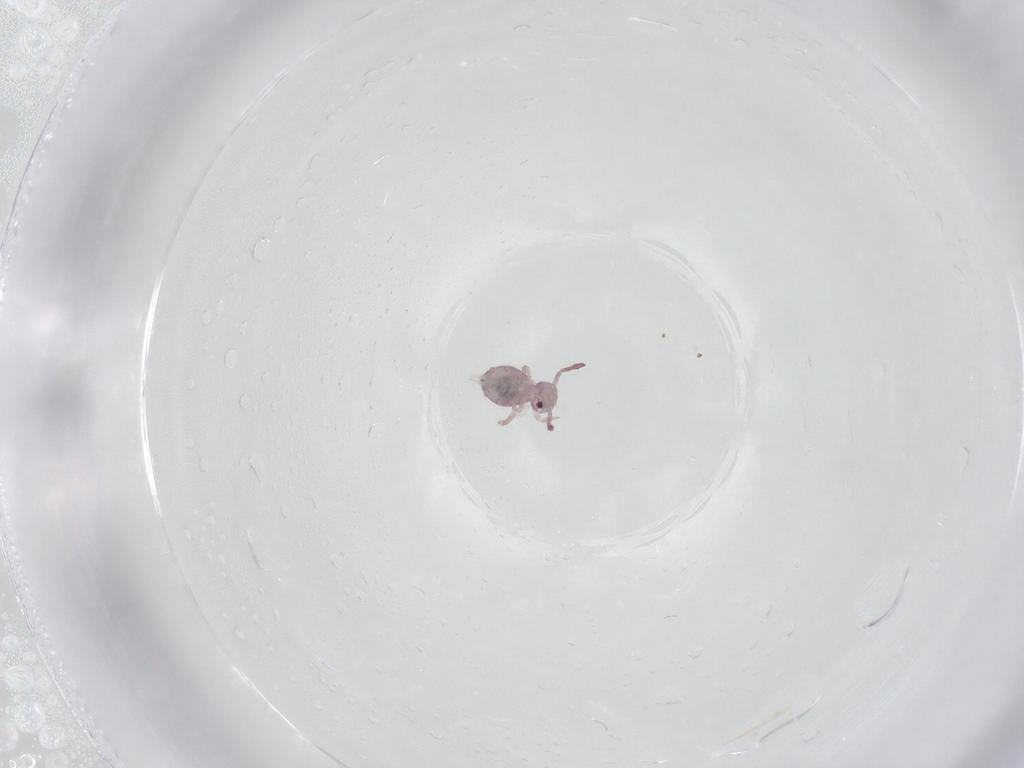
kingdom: Animalia
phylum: Arthropoda
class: Collembola
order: Symphypleona
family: Dicyrtomidae
